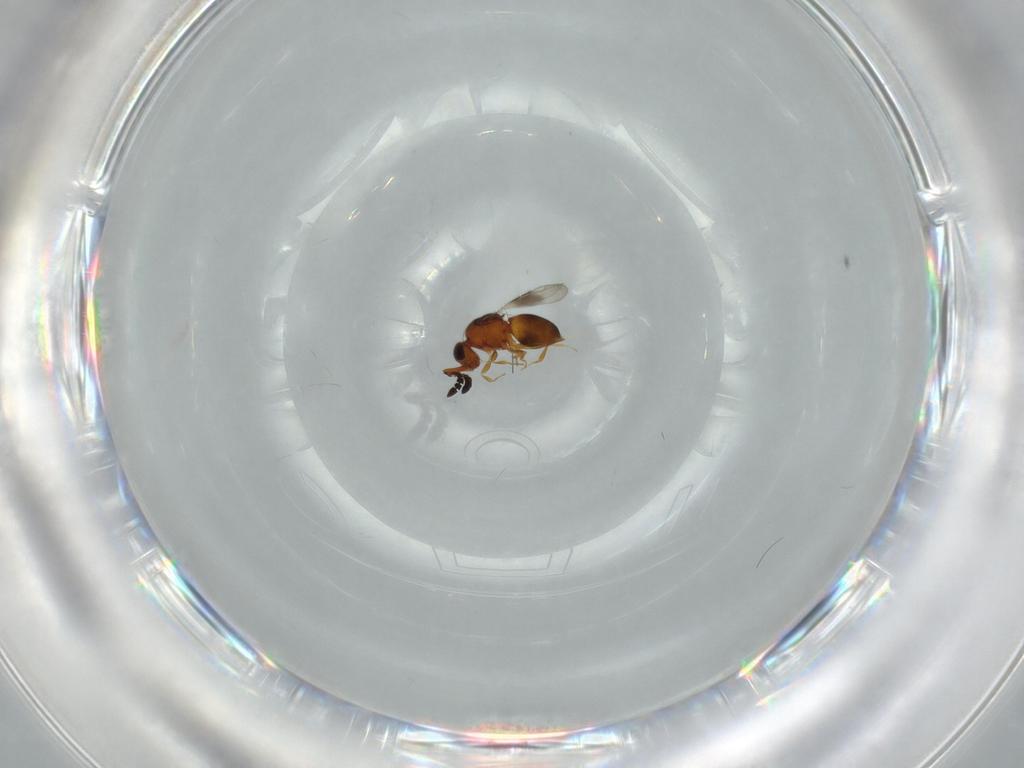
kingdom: Animalia
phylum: Arthropoda
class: Insecta
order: Hymenoptera
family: Ceraphronidae
